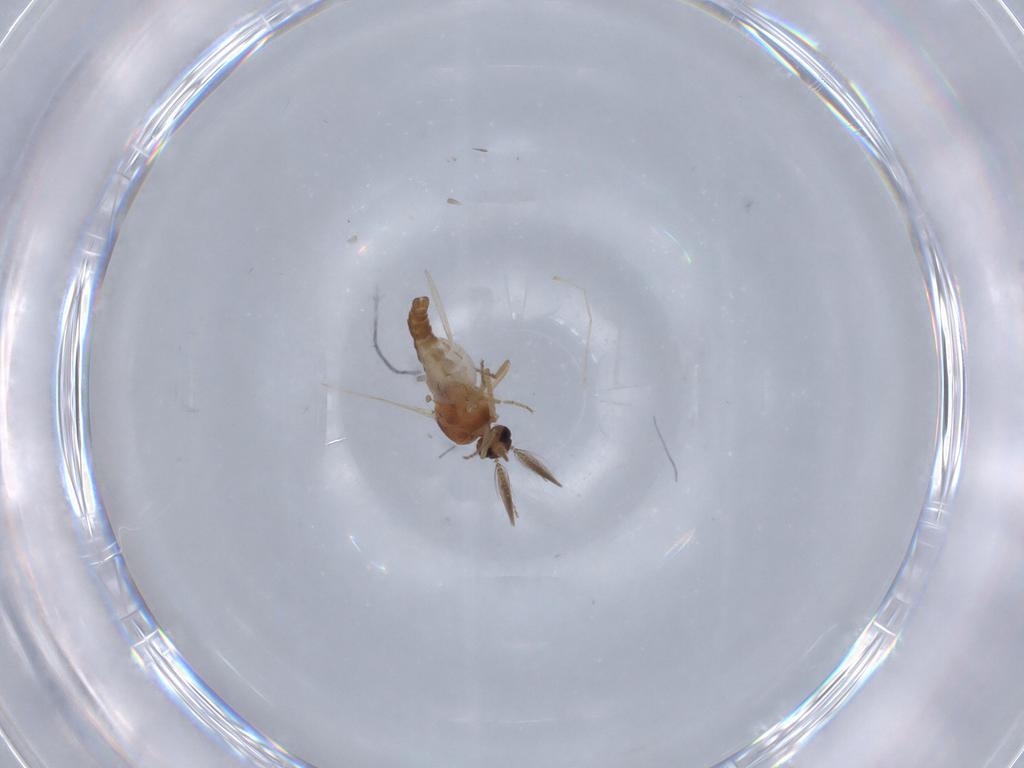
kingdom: Animalia
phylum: Arthropoda
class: Insecta
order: Diptera
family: Ceratopogonidae
